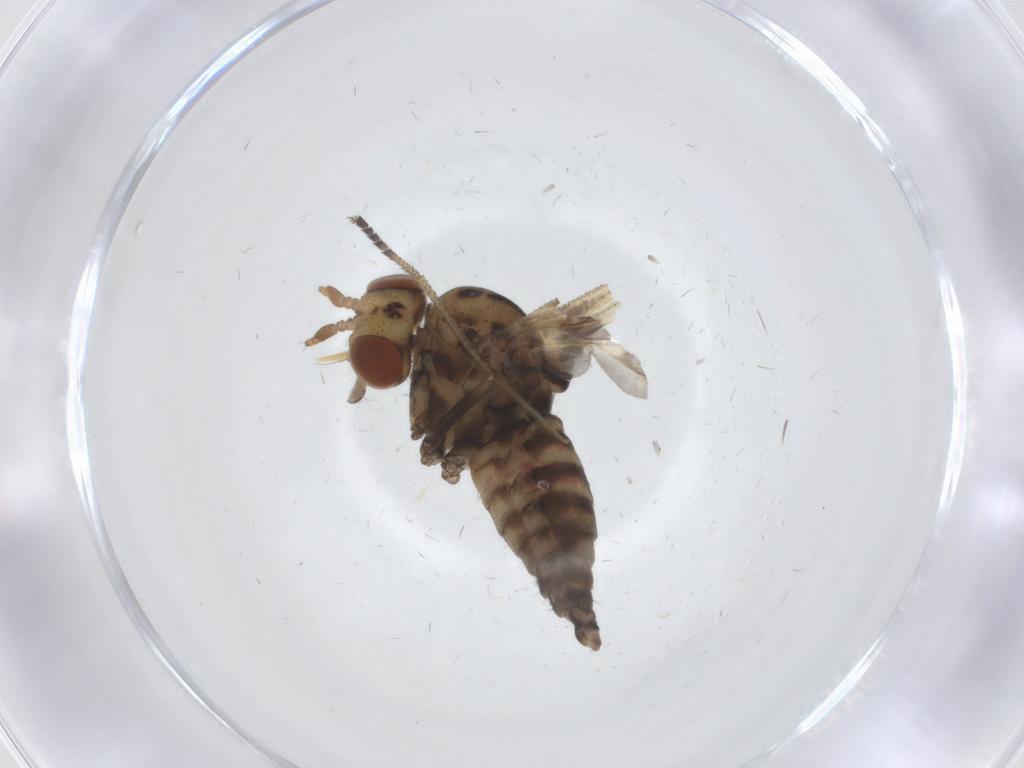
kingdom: Animalia
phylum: Arthropoda
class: Insecta
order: Diptera
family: Austroleptidae
